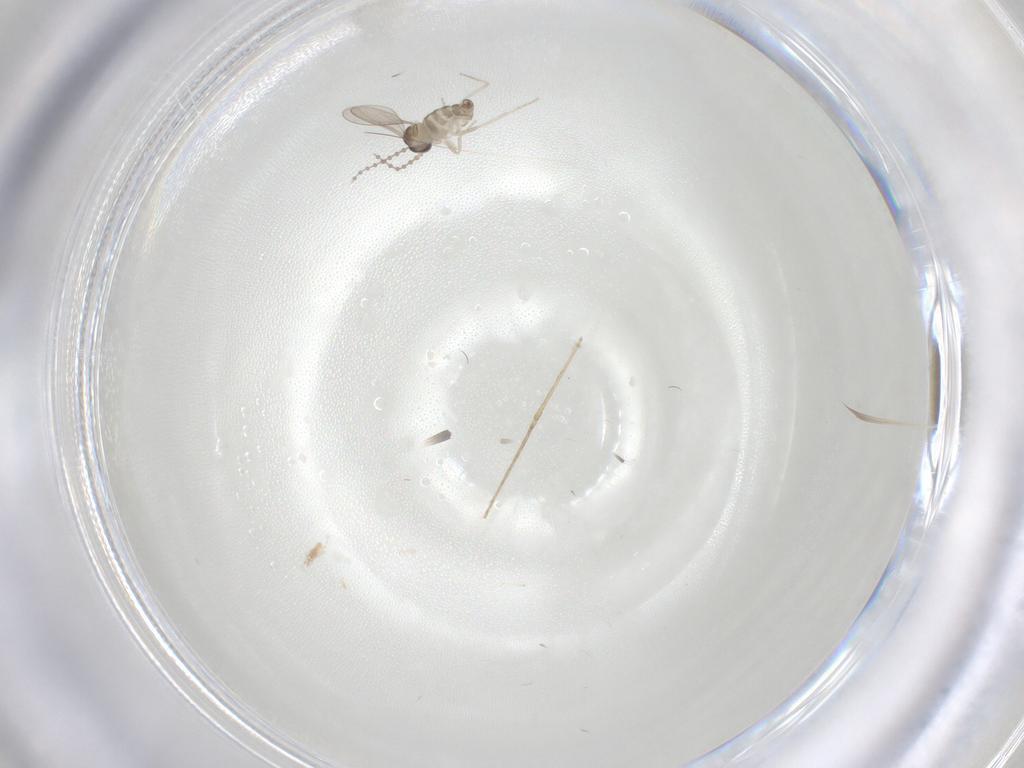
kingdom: Animalia
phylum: Arthropoda
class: Insecta
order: Diptera
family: Cecidomyiidae
